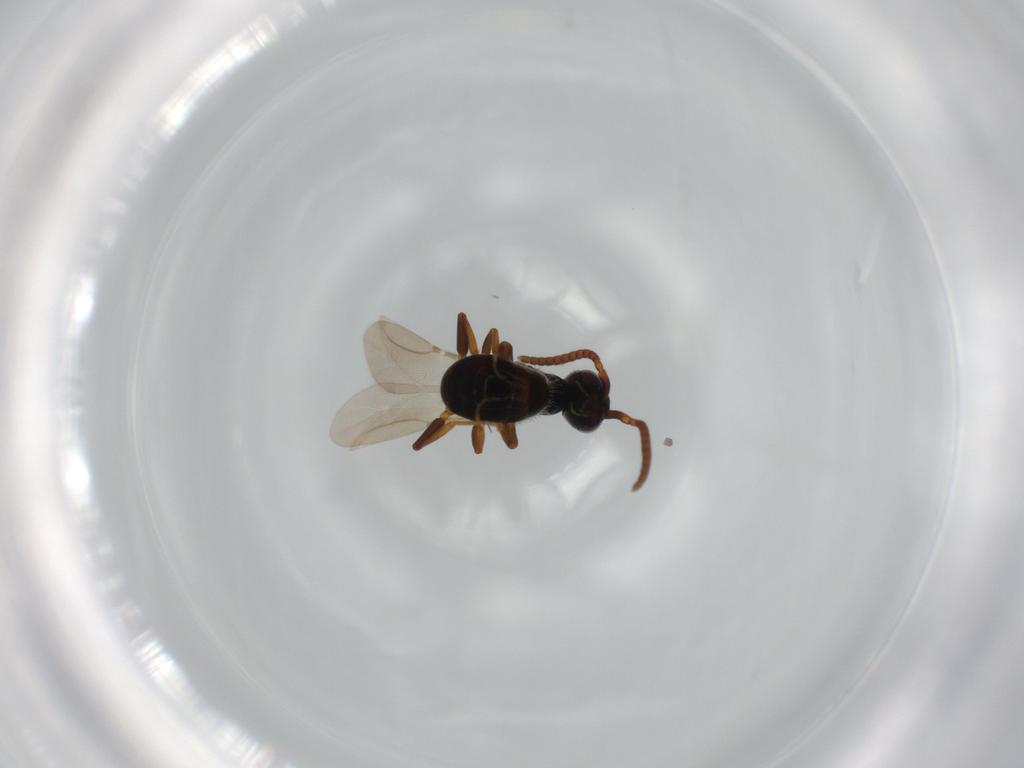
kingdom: Animalia
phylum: Arthropoda
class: Insecta
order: Hymenoptera
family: Bethylidae
